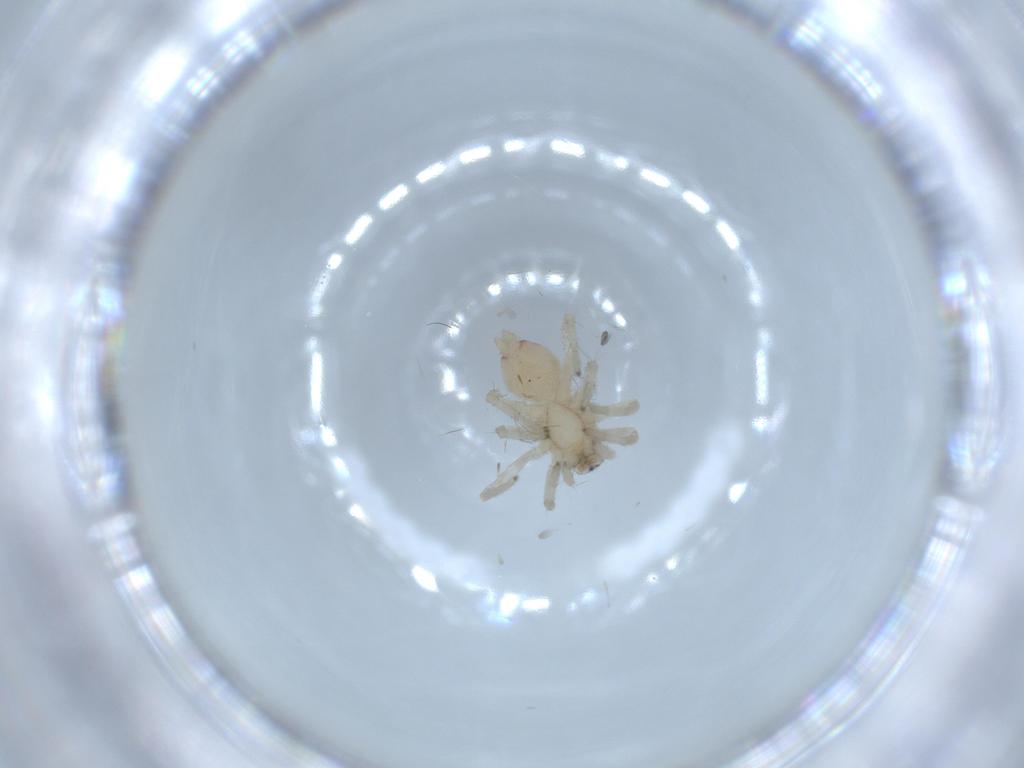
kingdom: Animalia
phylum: Arthropoda
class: Arachnida
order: Araneae
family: Clubionidae
